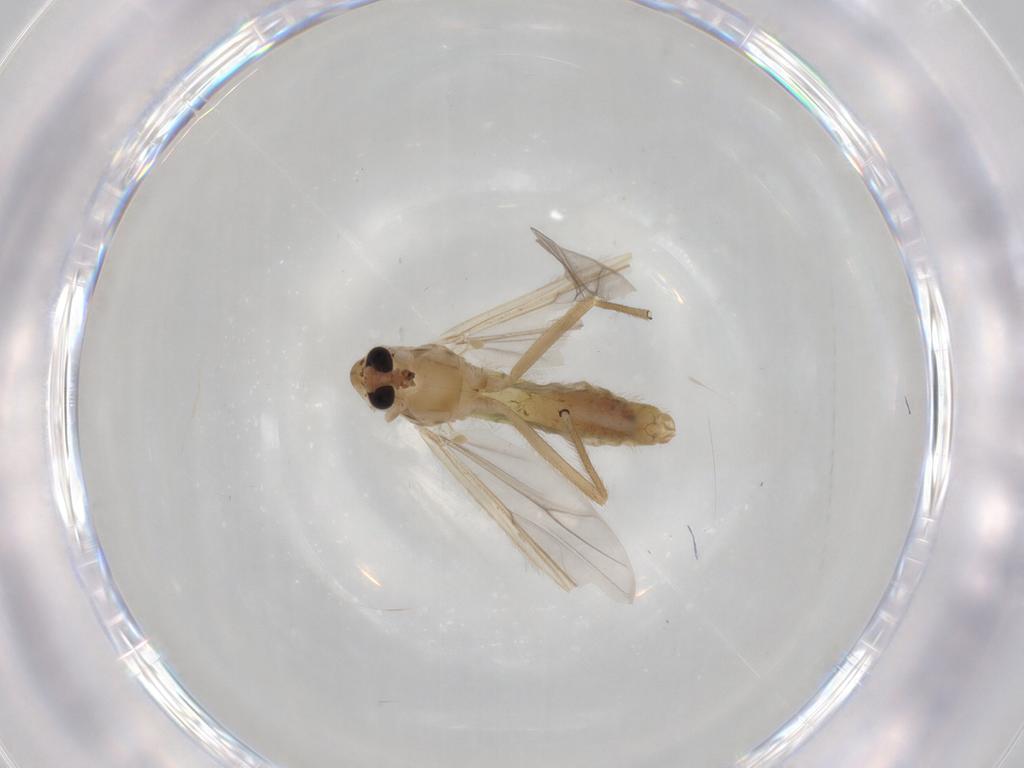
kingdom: Animalia
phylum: Arthropoda
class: Insecta
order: Diptera
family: Chironomidae
